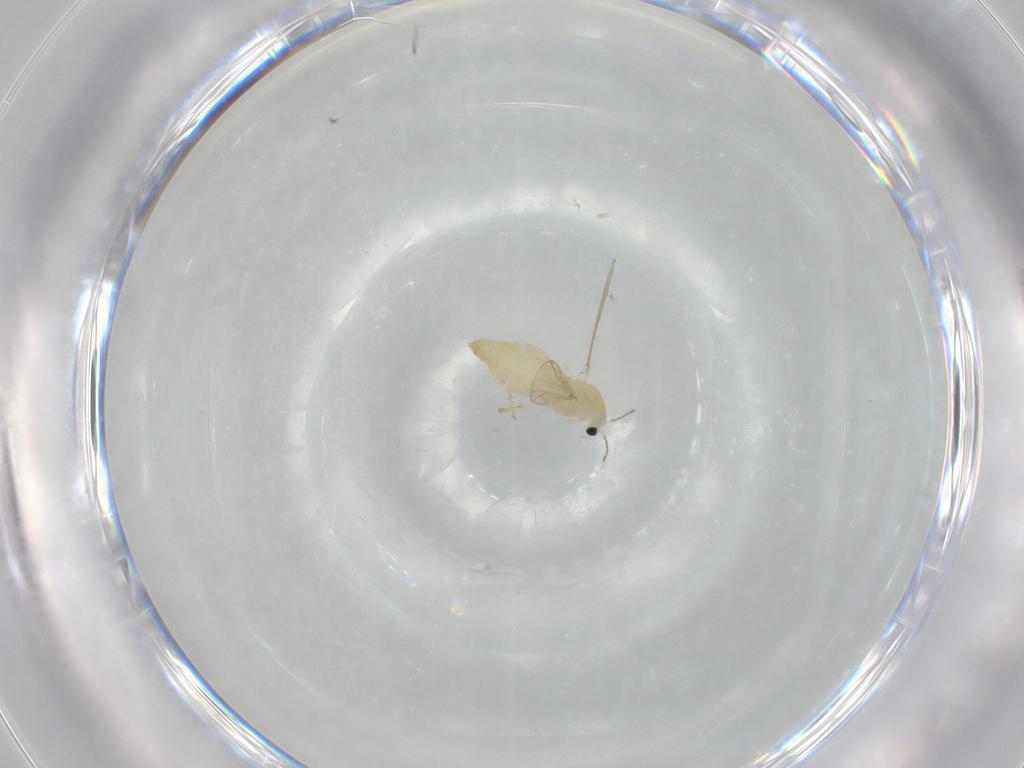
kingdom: Animalia
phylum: Arthropoda
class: Insecta
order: Diptera
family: Chironomidae
